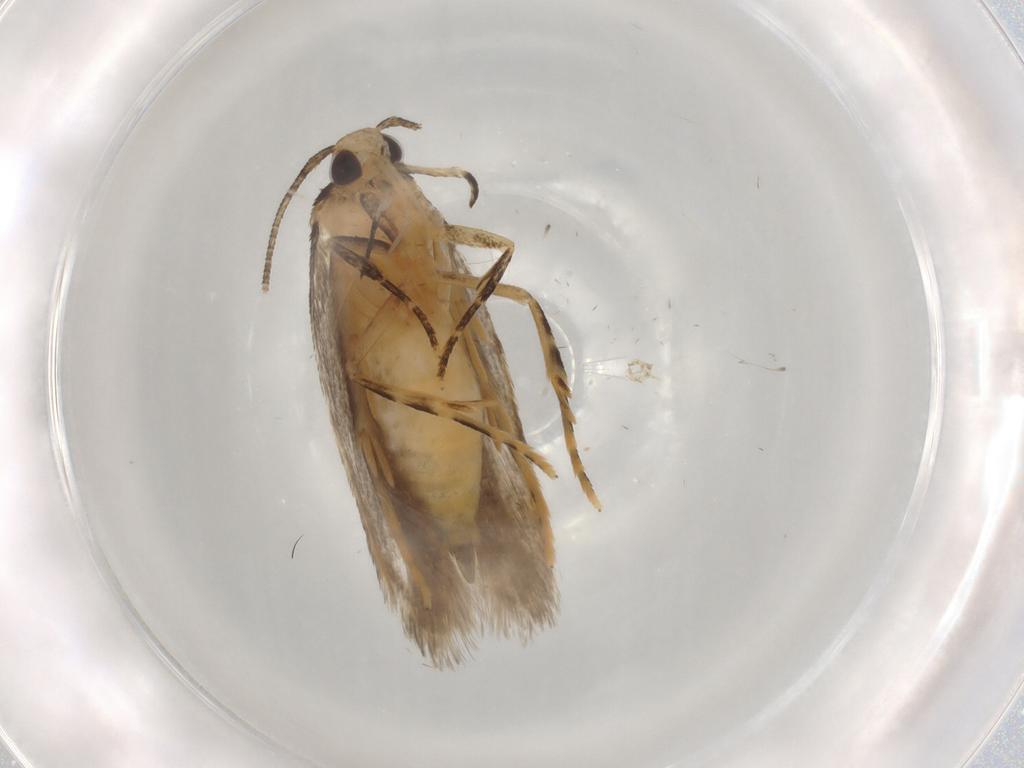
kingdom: Animalia
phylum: Arthropoda
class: Insecta
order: Lepidoptera
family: Autostichidae
